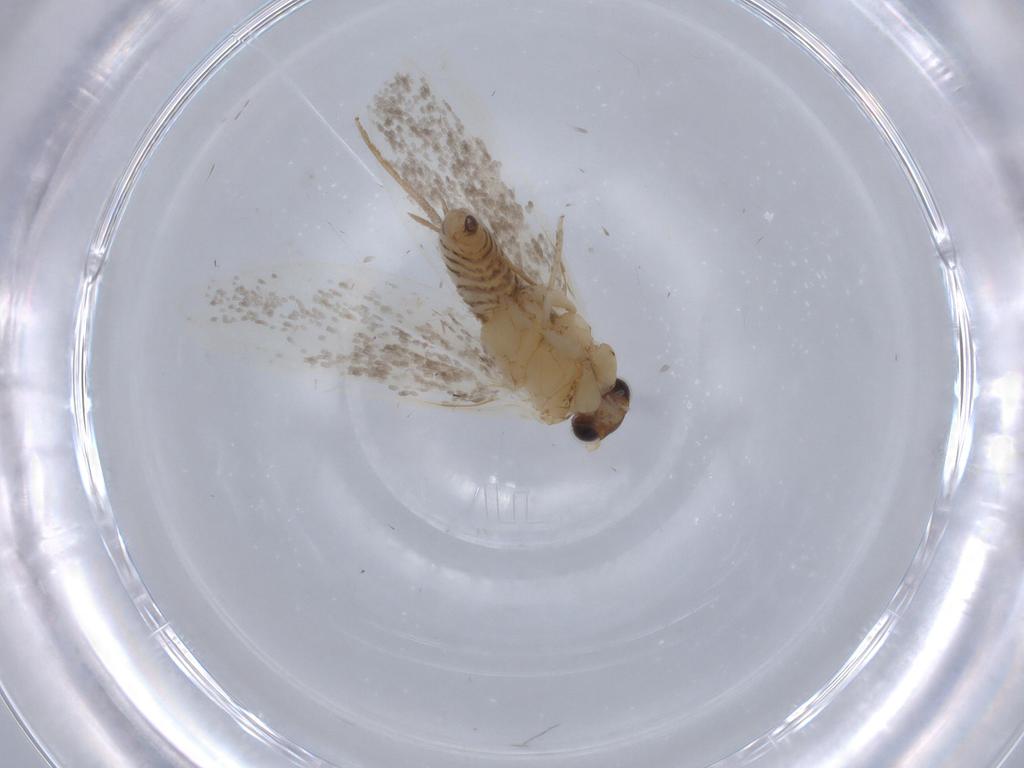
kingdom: Animalia
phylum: Arthropoda
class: Insecta
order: Lepidoptera
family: Tineidae
